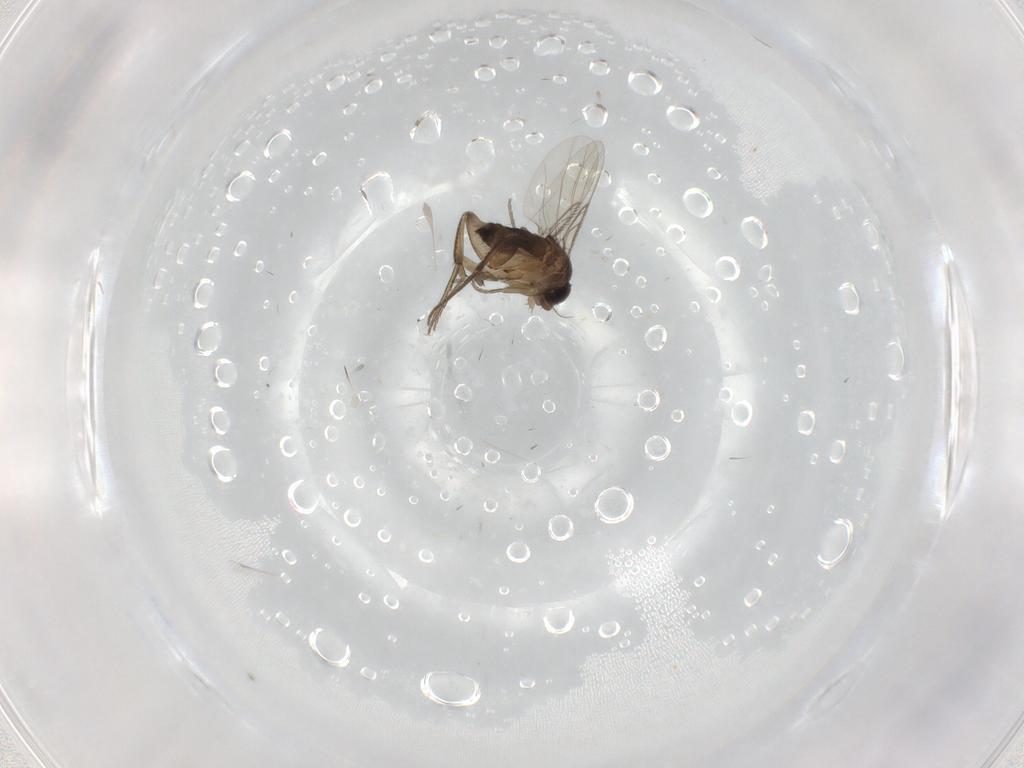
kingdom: Animalia
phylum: Arthropoda
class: Insecta
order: Diptera
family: Phoridae
